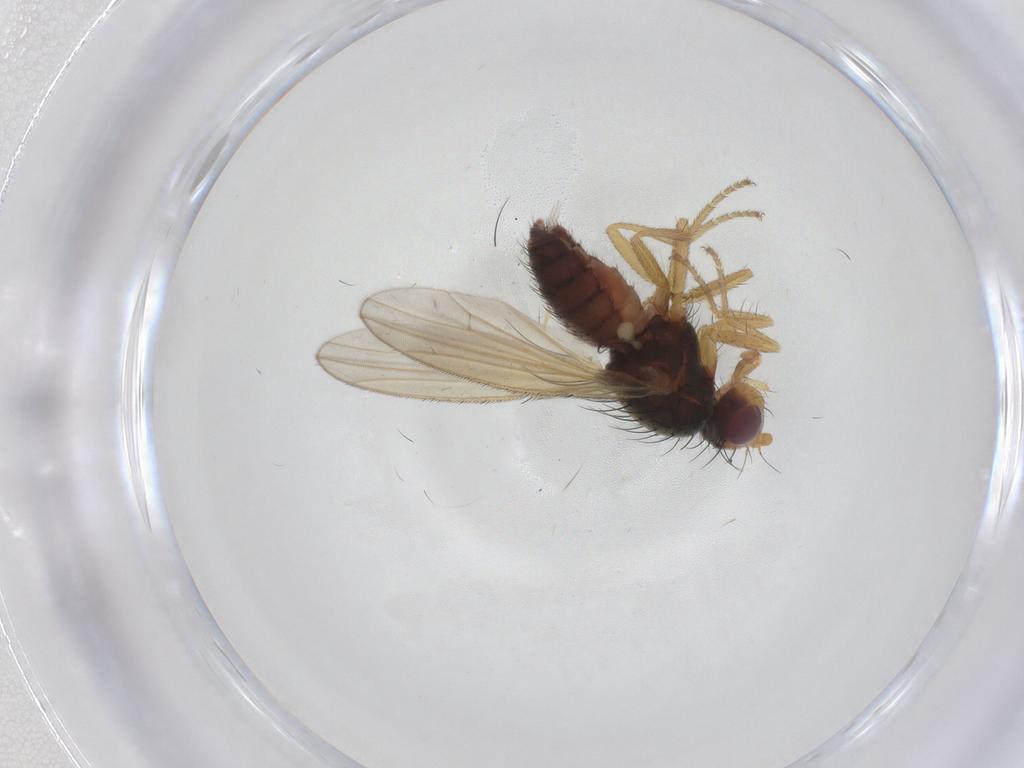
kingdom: Animalia
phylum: Arthropoda
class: Insecta
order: Diptera
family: Heleomyzidae
